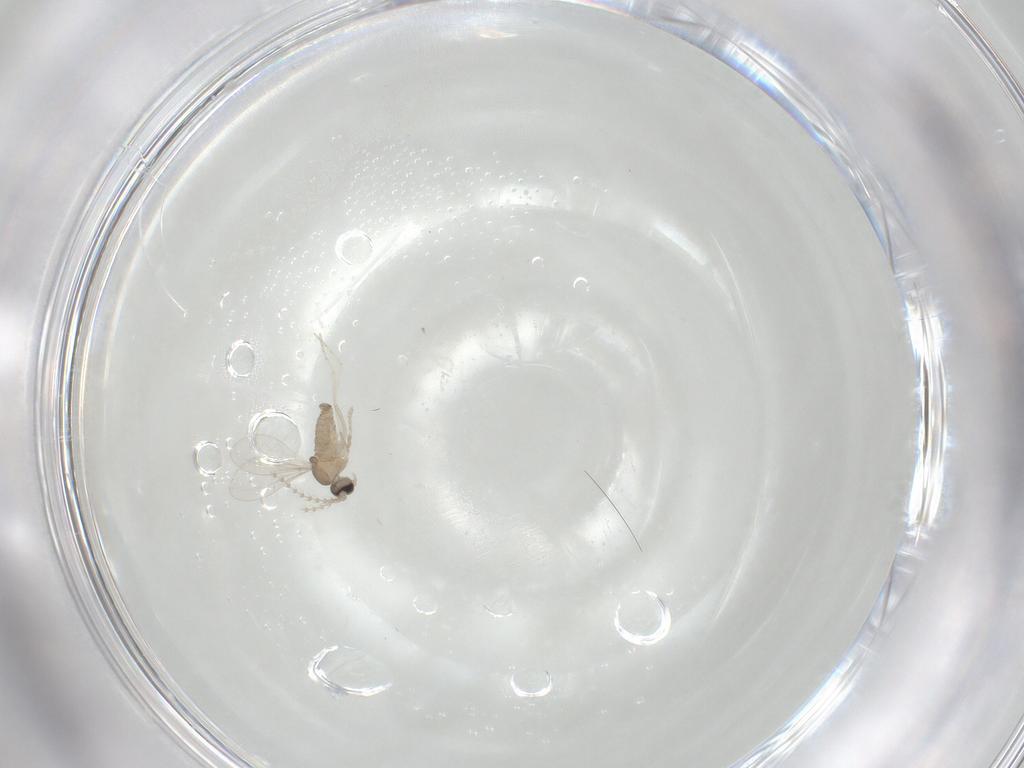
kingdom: Animalia
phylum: Arthropoda
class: Insecta
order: Diptera
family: Cecidomyiidae
